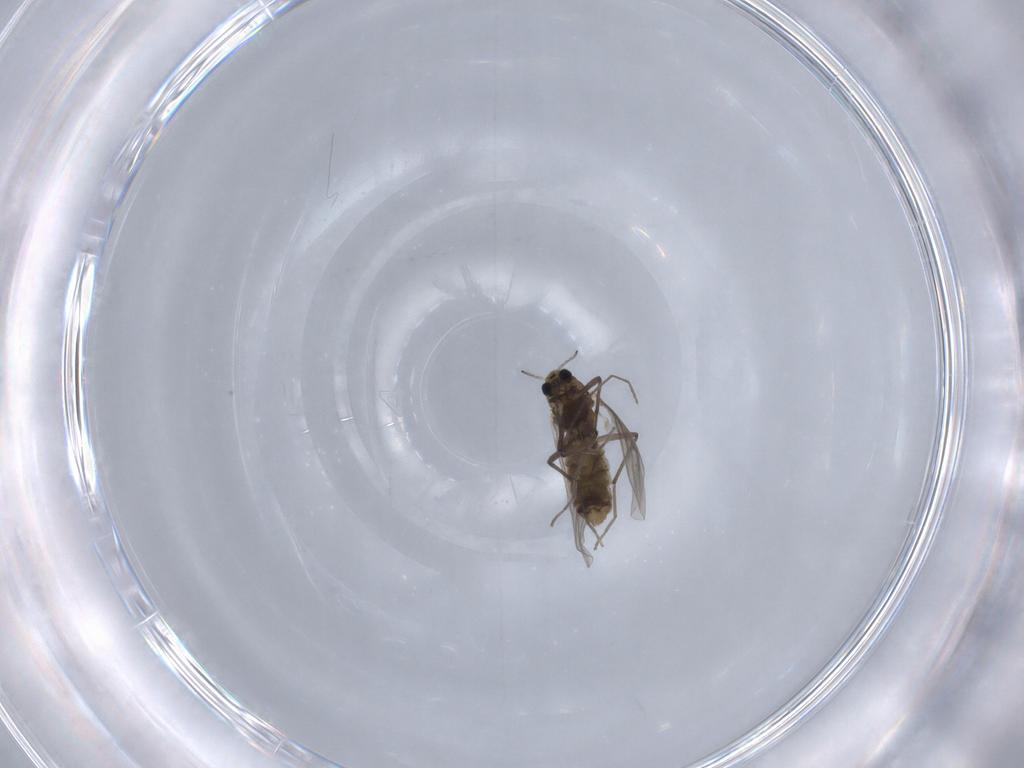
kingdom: Animalia
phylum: Arthropoda
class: Insecta
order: Diptera
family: Chironomidae
